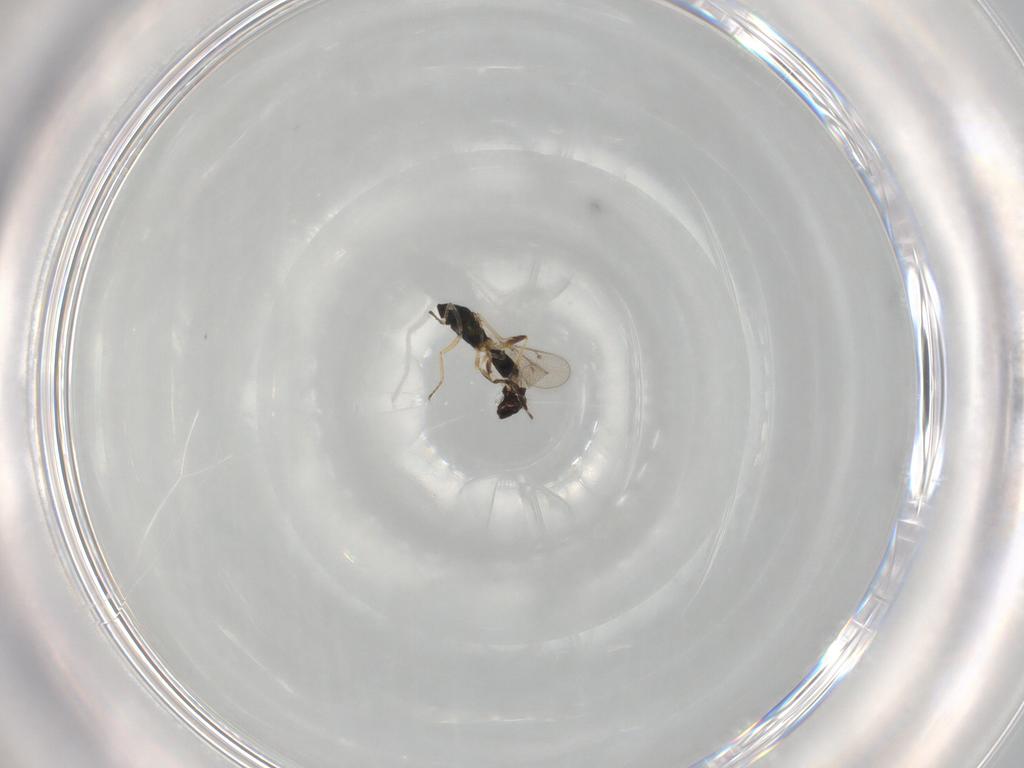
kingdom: Animalia
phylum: Arthropoda
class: Insecta
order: Hymenoptera
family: Eulophidae
